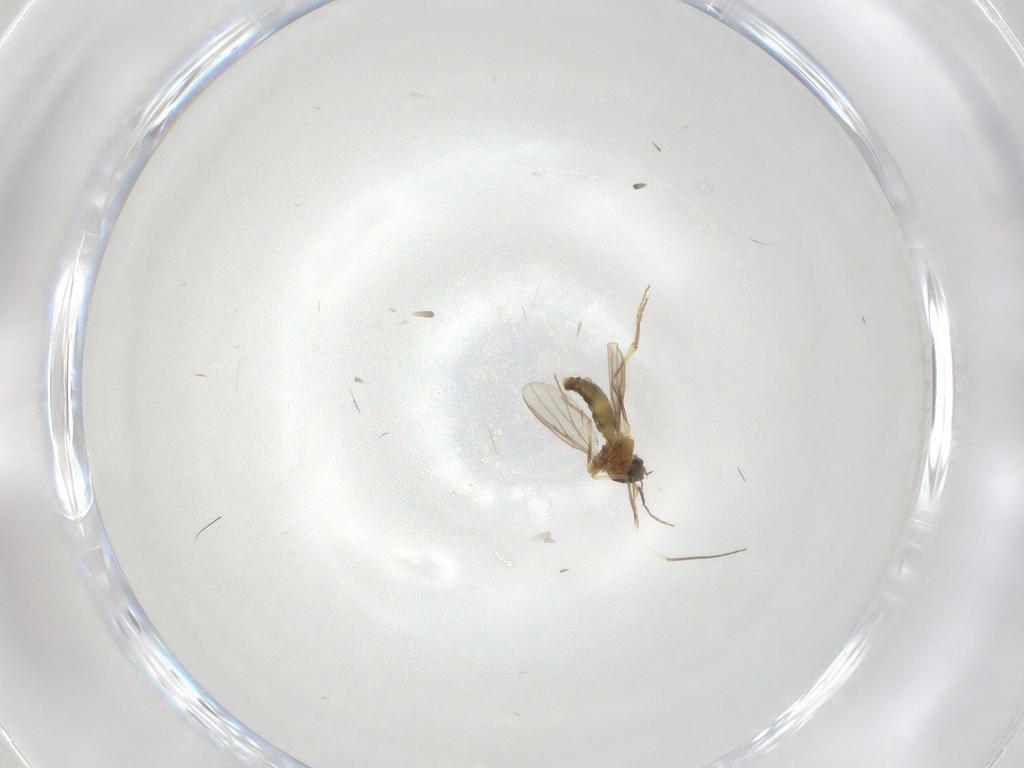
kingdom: Animalia
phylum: Arthropoda
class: Insecta
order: Diptera
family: Chironomidae
